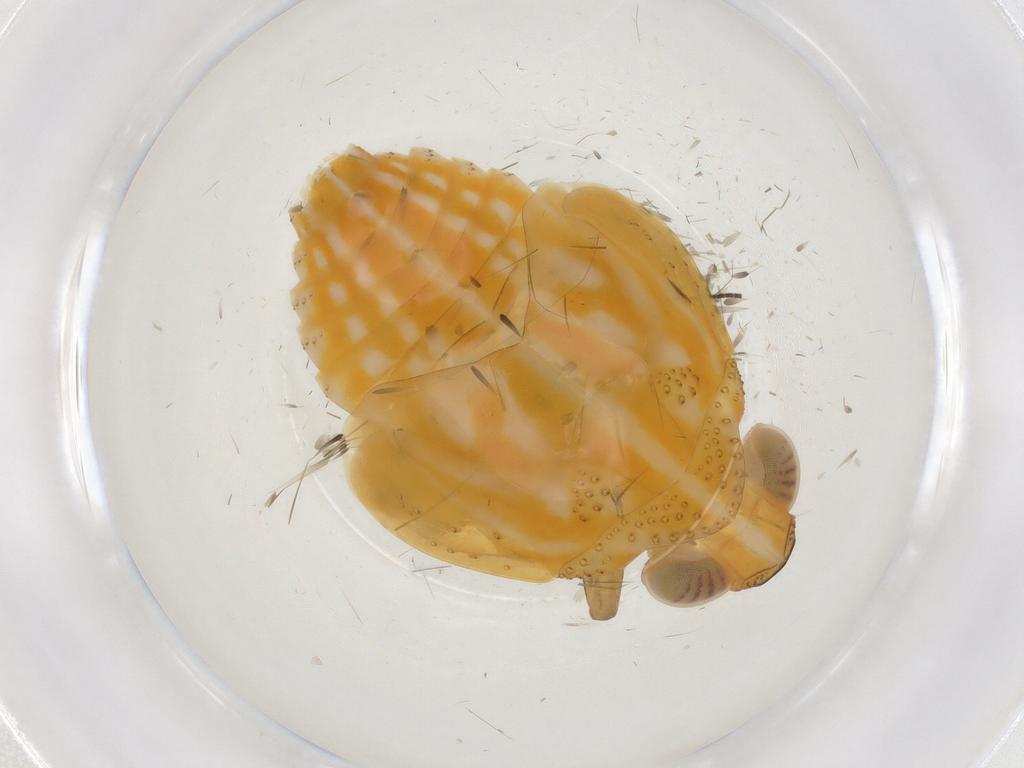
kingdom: Animalia
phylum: Arthropoda
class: Insecta
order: Hemiptera
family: Issidae
